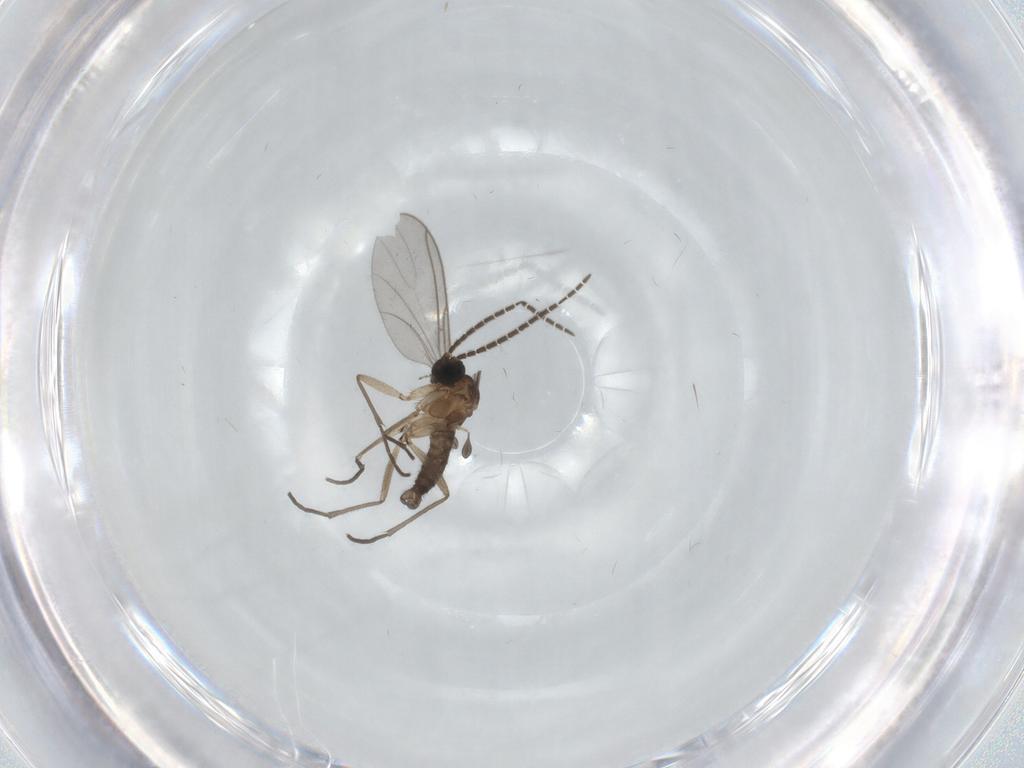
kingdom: Animalia
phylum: Arthropoda
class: Insecta
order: Diptera
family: Sciaridae
